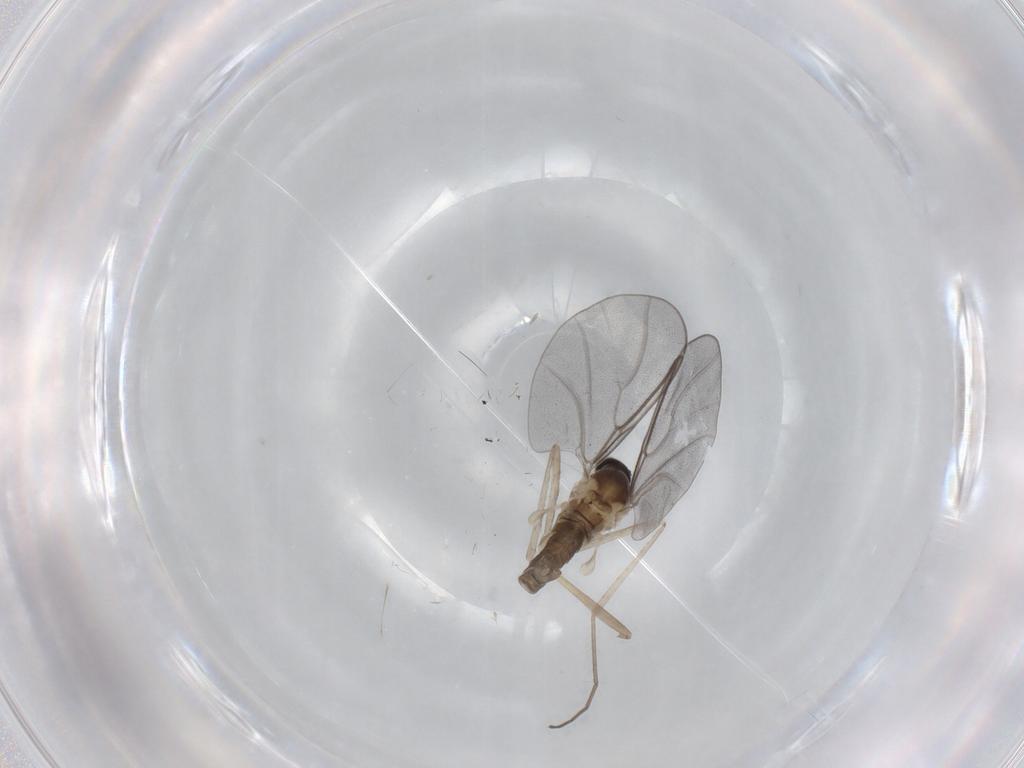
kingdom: Animalia
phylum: Arthropoda
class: Insecta
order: Diptera
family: Cecidomyiidae
